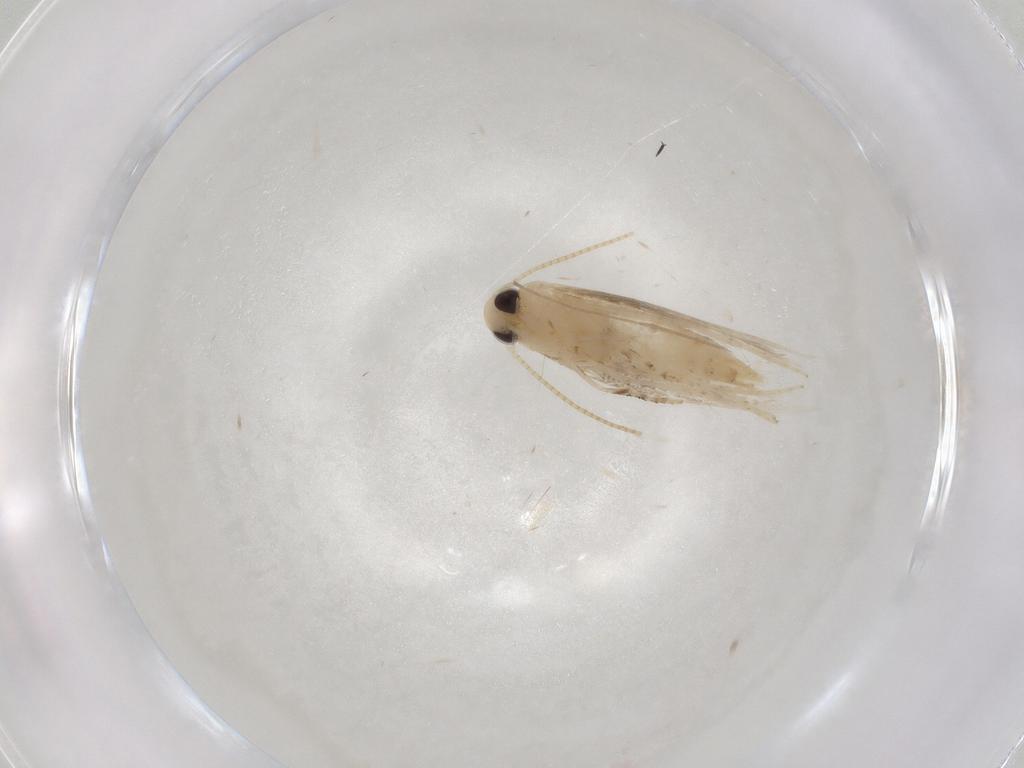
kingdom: Animalia
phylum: Arthropoda
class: Insecta
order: Lepidoptera
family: Gracillariidae
